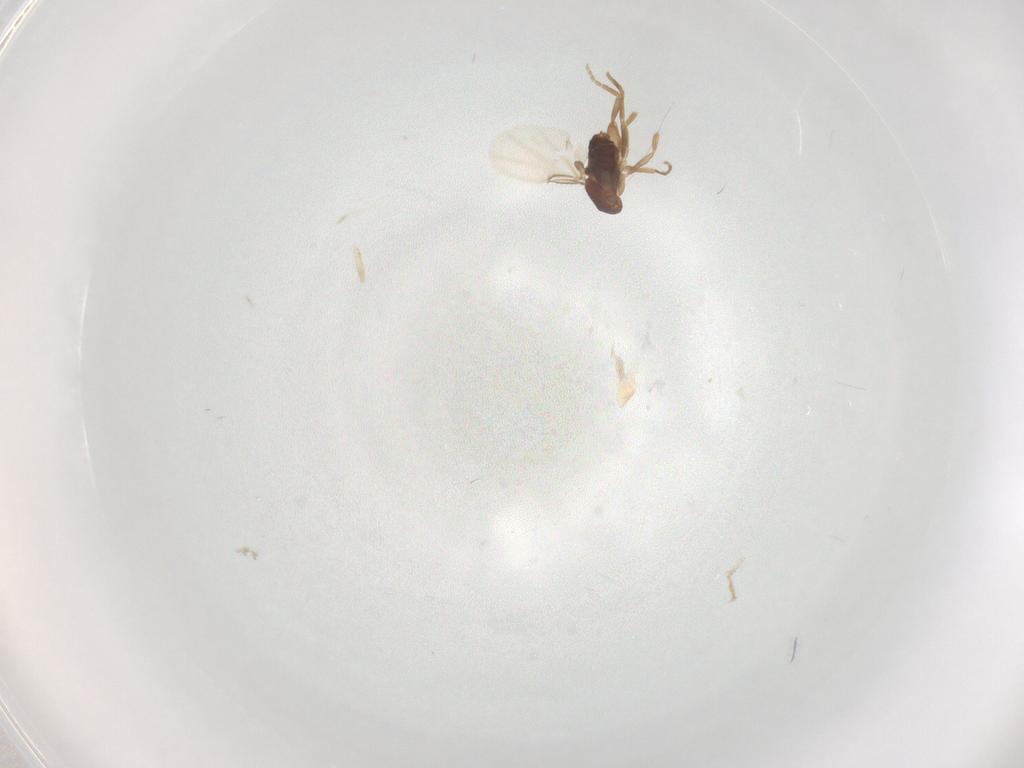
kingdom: Animalia
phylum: Arthropoda
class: Insecta
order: Diptera
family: Phoridae
